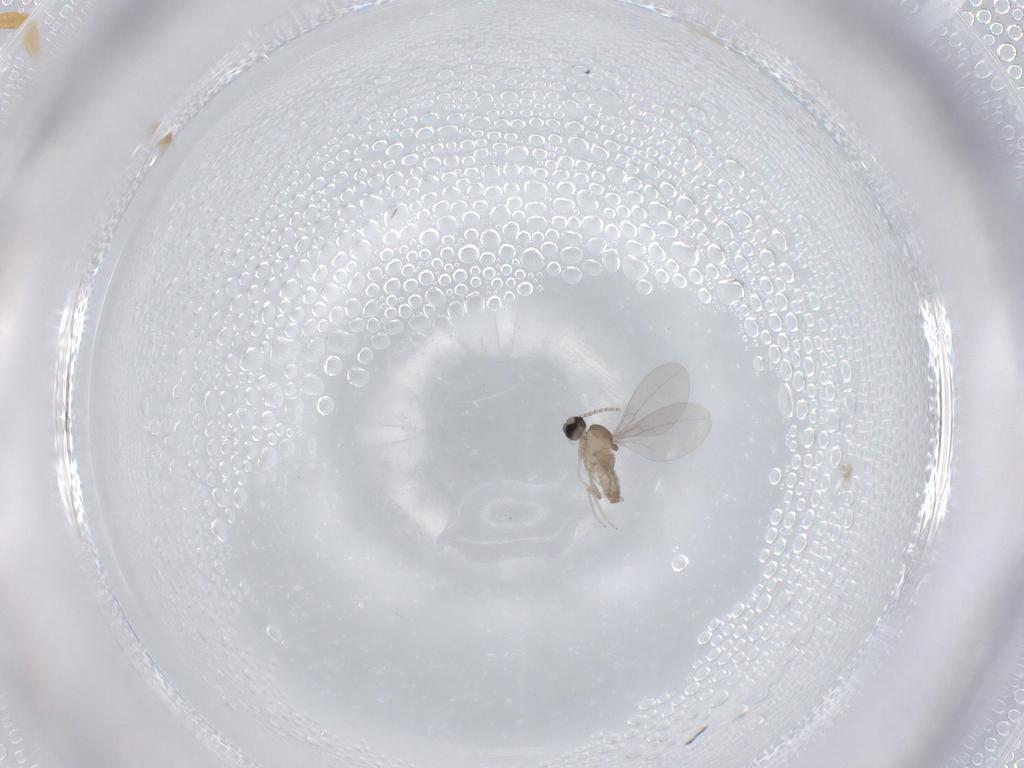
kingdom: Animalia
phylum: Arthropoda
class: Insecta
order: Diptera
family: Cecidomyiidae
